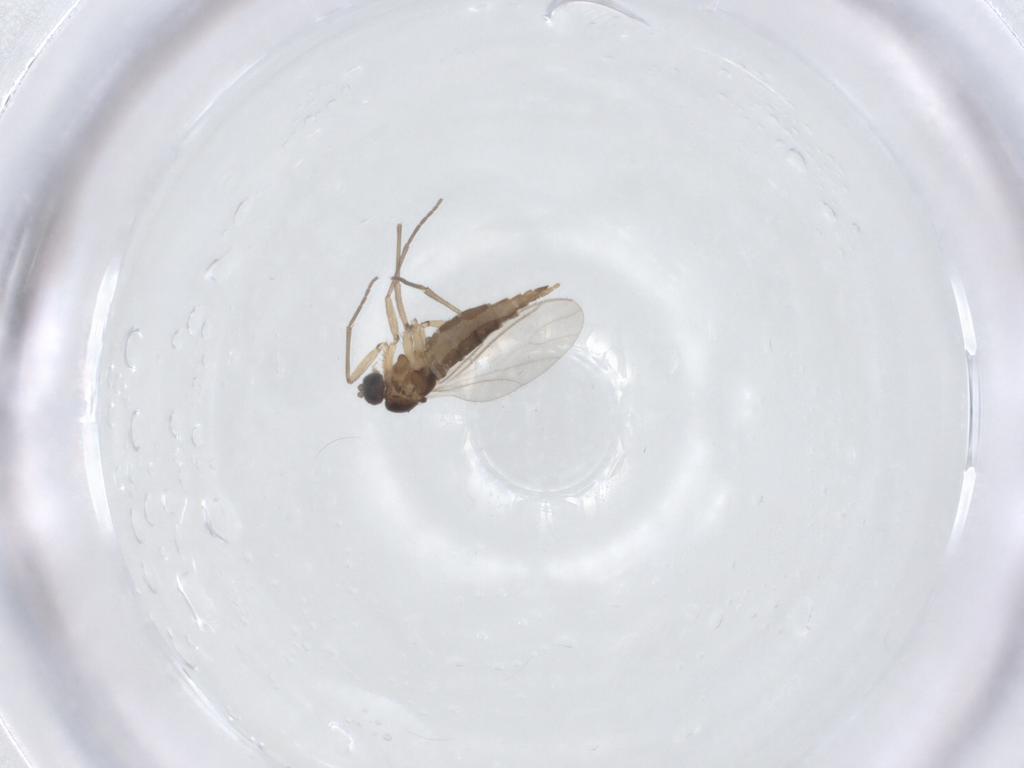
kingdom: Animalia
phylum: Arthropoda
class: Insecta
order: Diptera
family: Sciaridae
